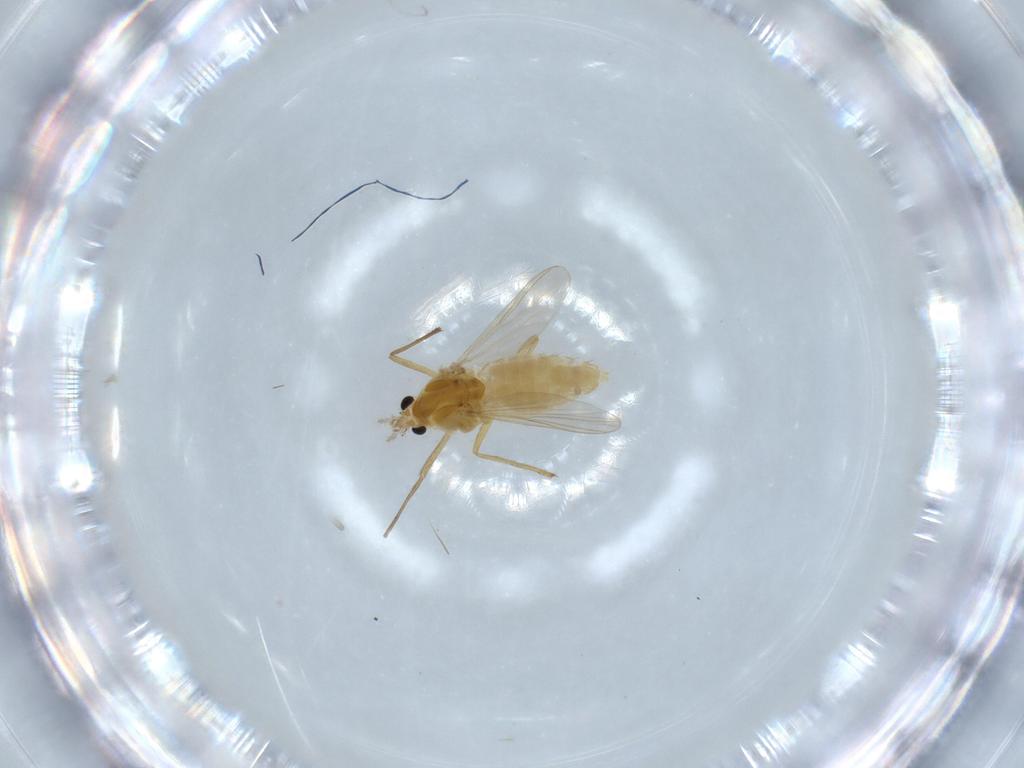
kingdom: Animalia
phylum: Arthropoda
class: Insecta
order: Diptera
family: Chironomidae
